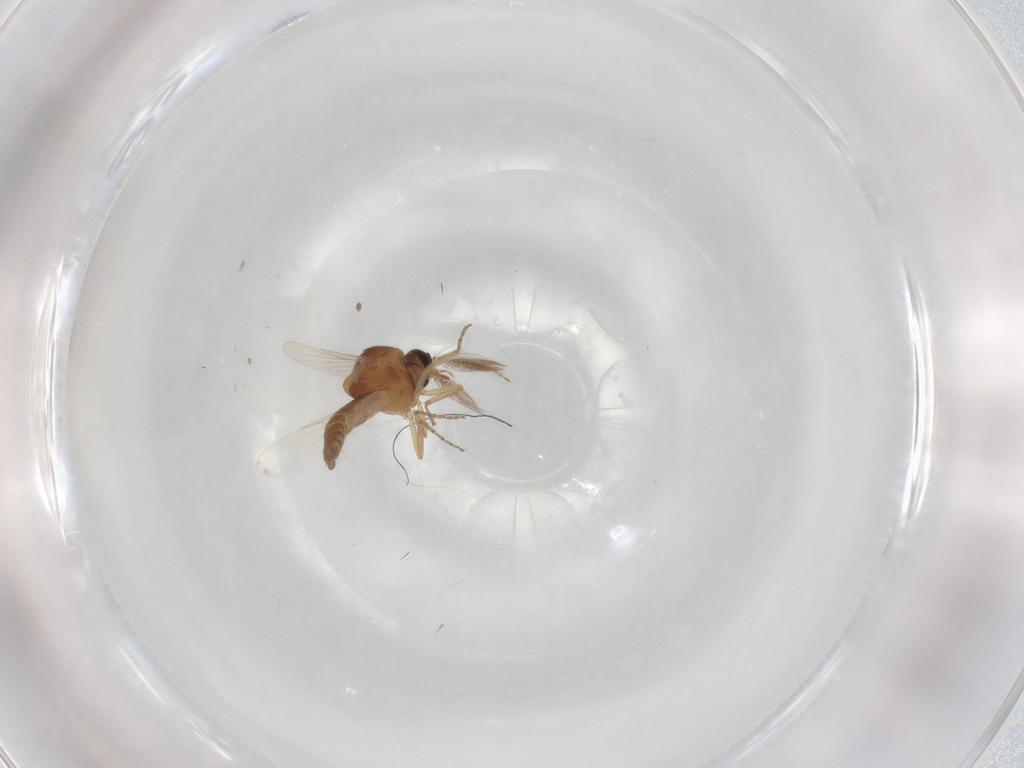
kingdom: Animalia
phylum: Arthropoda
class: Insecta
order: Diptera
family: Ceratopogonidae
